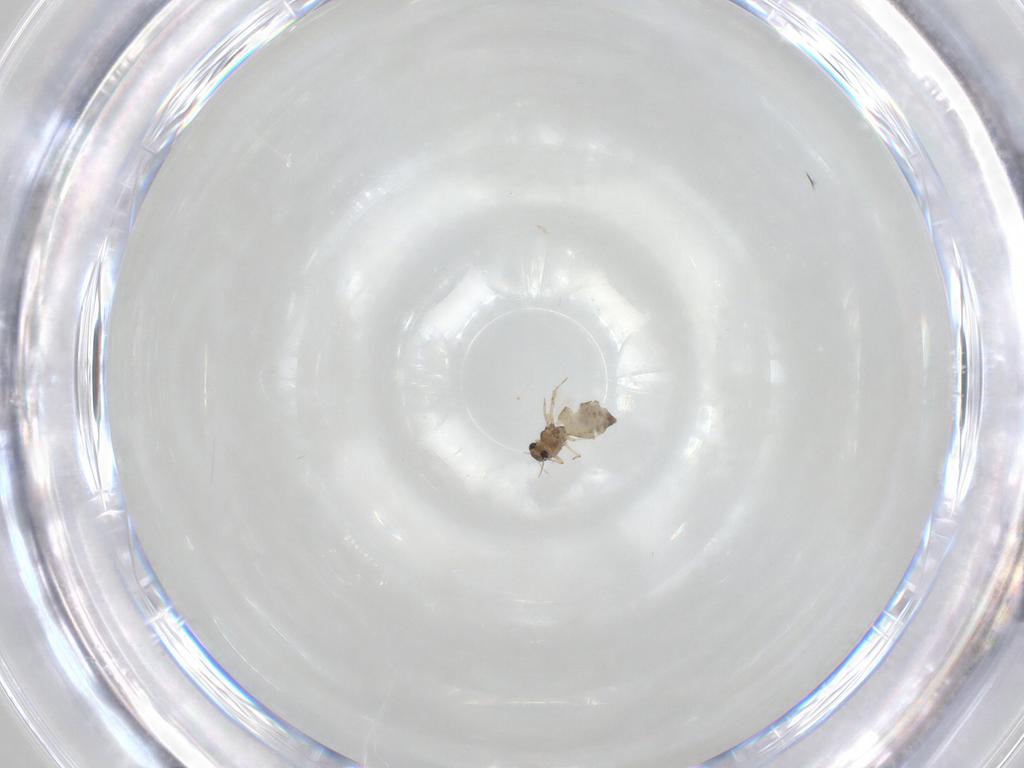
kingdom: Animalia
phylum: Arthropoda
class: Insecta
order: Diptera
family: Chironomidae
